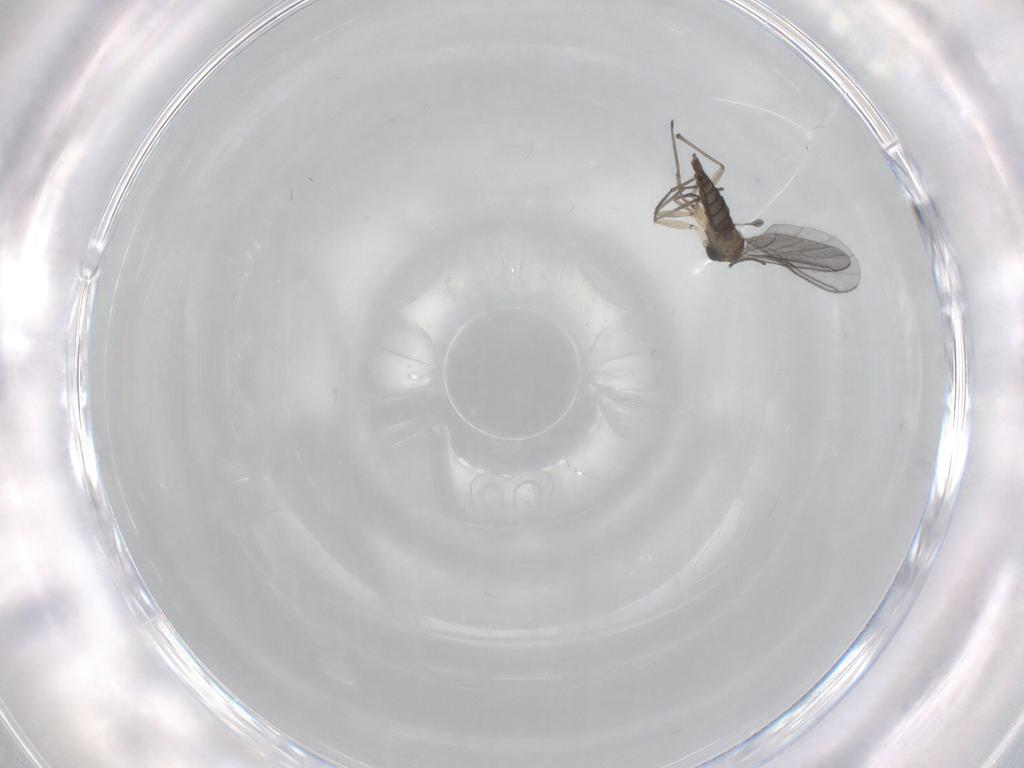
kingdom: Animalia
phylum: Arthropoda
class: Insecta
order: Diptera
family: Sciaridae
